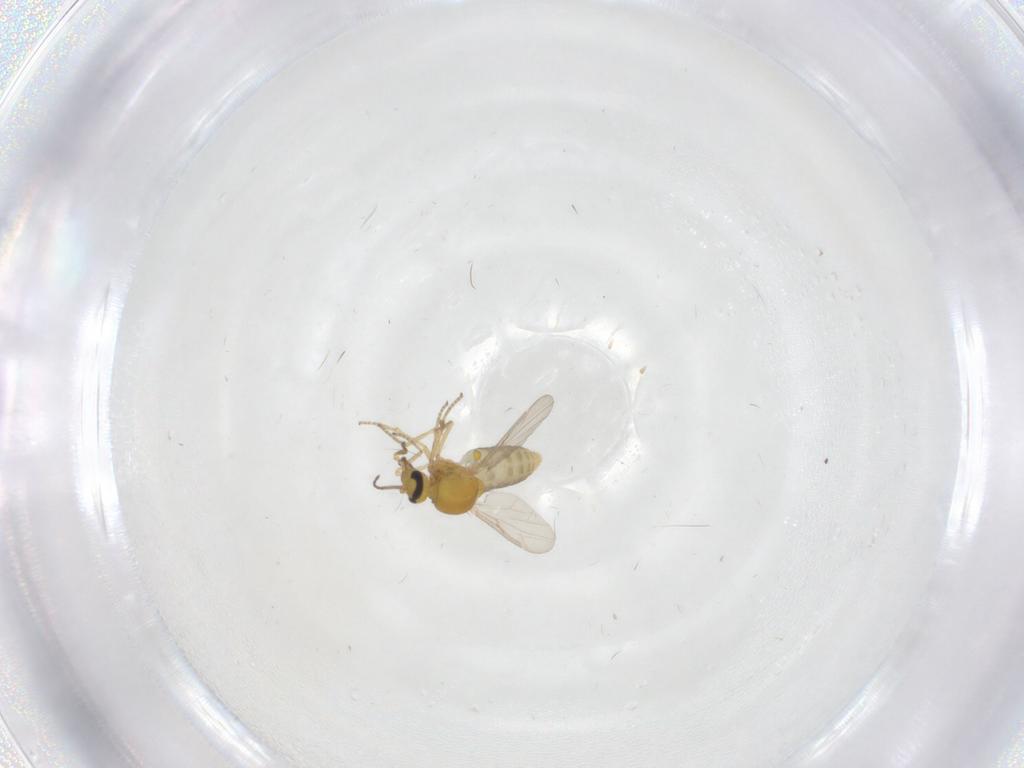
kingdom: Animalia
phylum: Arthropoda
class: Insecta
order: Diptera
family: Ceratopogonidae
